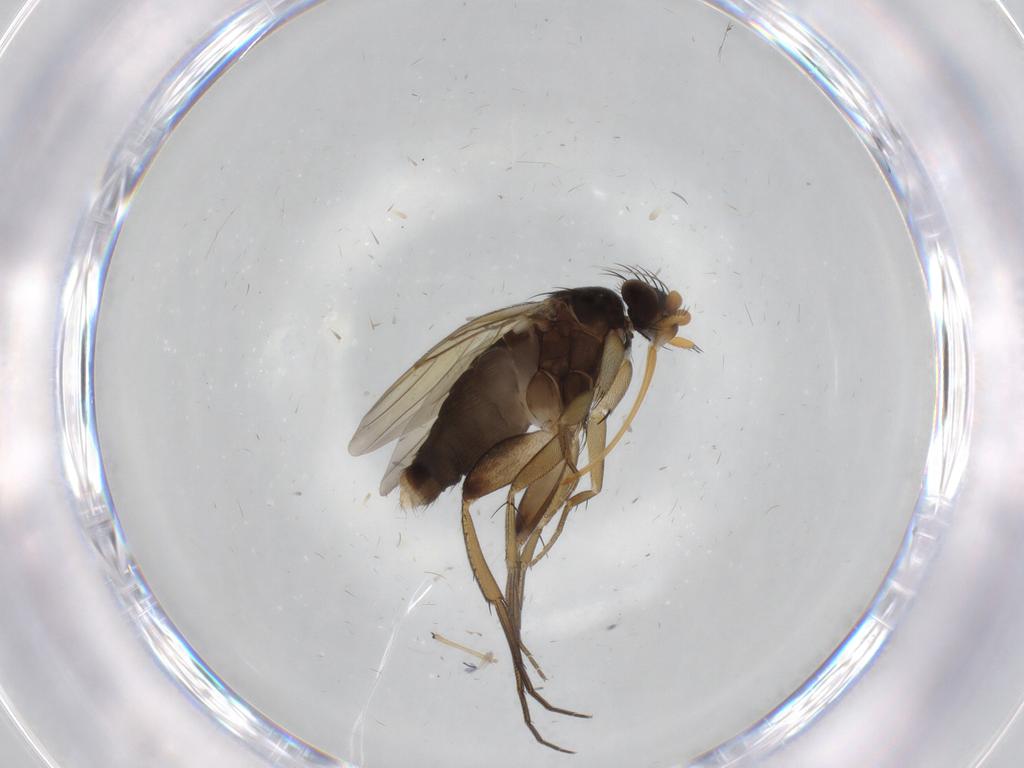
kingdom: Animalia
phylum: Arthropoda
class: Insecta
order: Diptera
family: Phoridae
